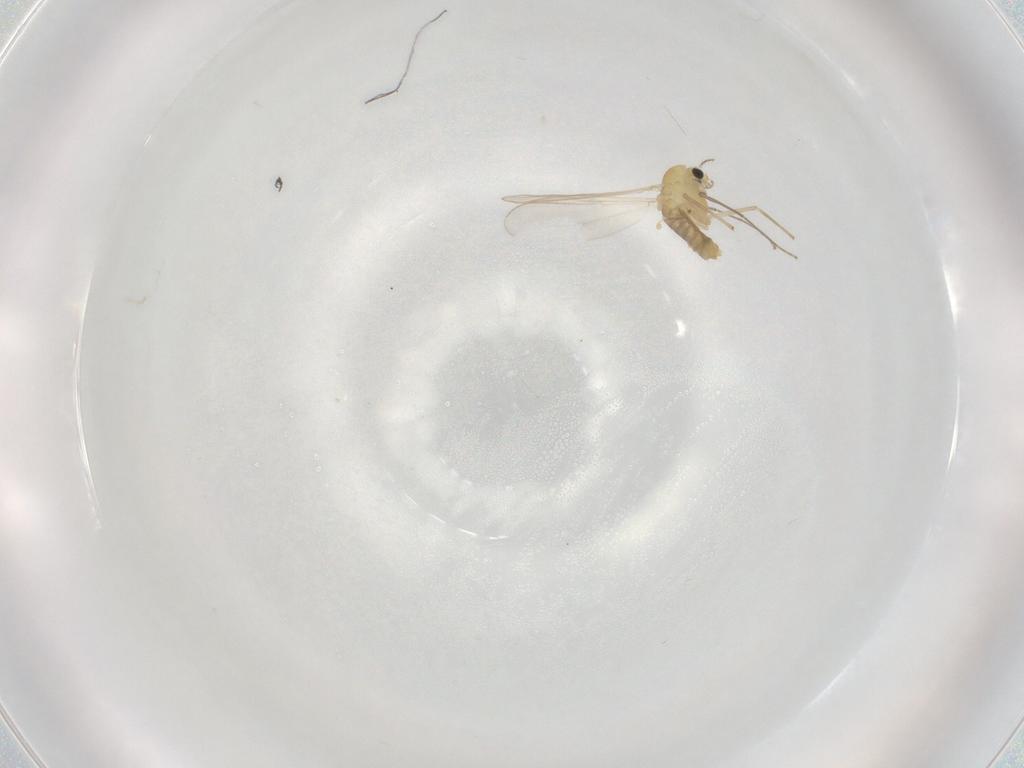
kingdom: Animalia
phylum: Arthropoda
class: Insecta
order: Diptera
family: Chironomidae
